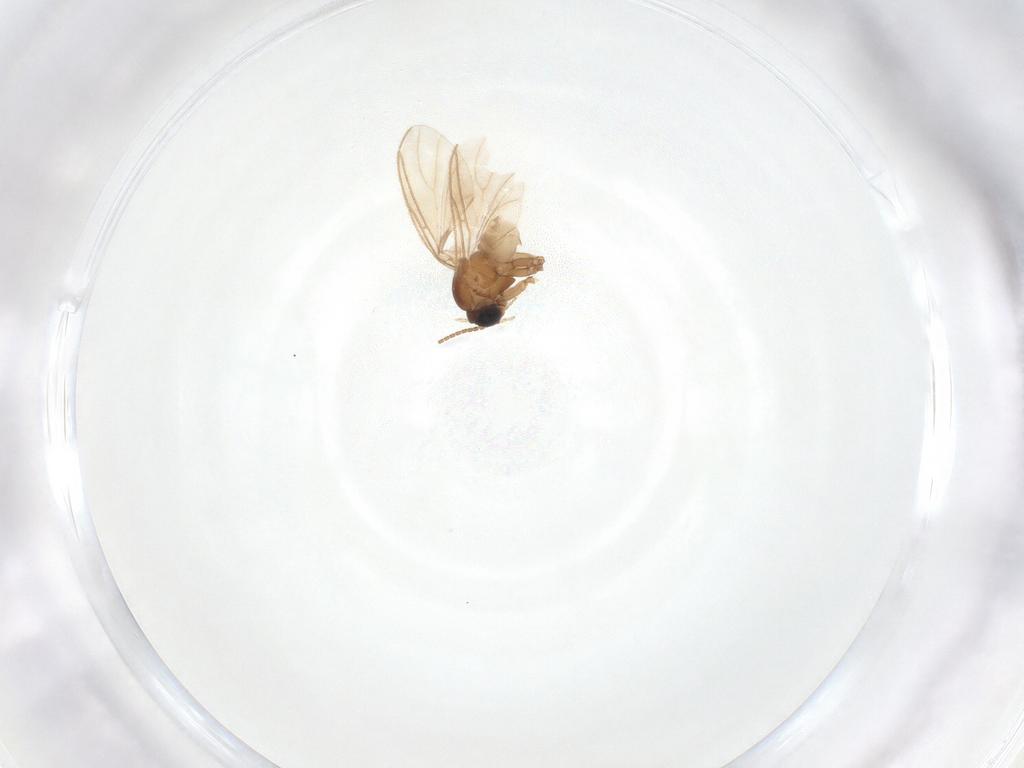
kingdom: Animalia
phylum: Arthropoda
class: Insecta
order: Diptera
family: Sciaridae
